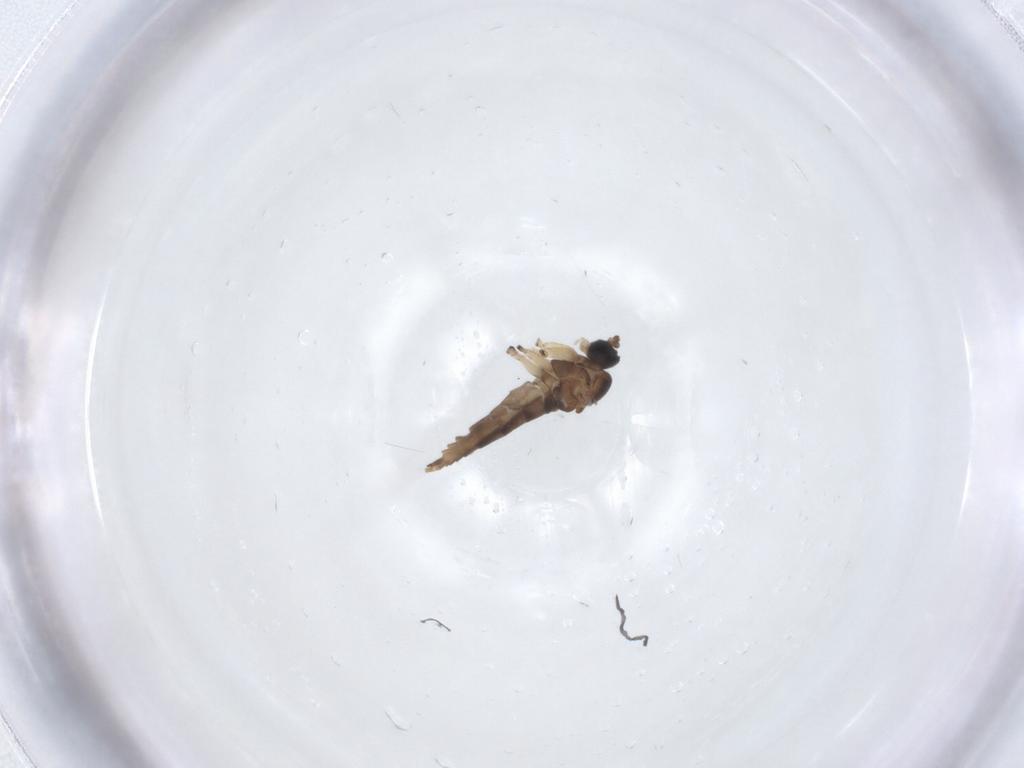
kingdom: Animalia
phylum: Arthropoda
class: Insecta
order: Diptera
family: Sciaridae
